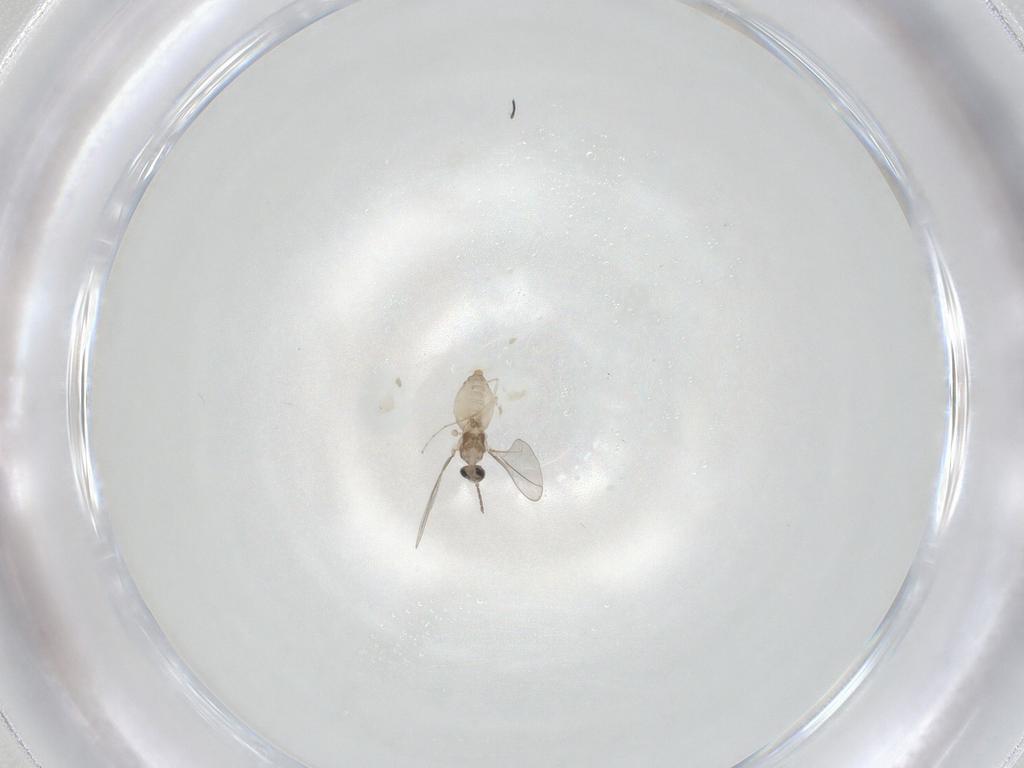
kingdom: Animalia
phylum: Arthropoda
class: Insecta
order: Diptera
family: Cecidomyiidae
